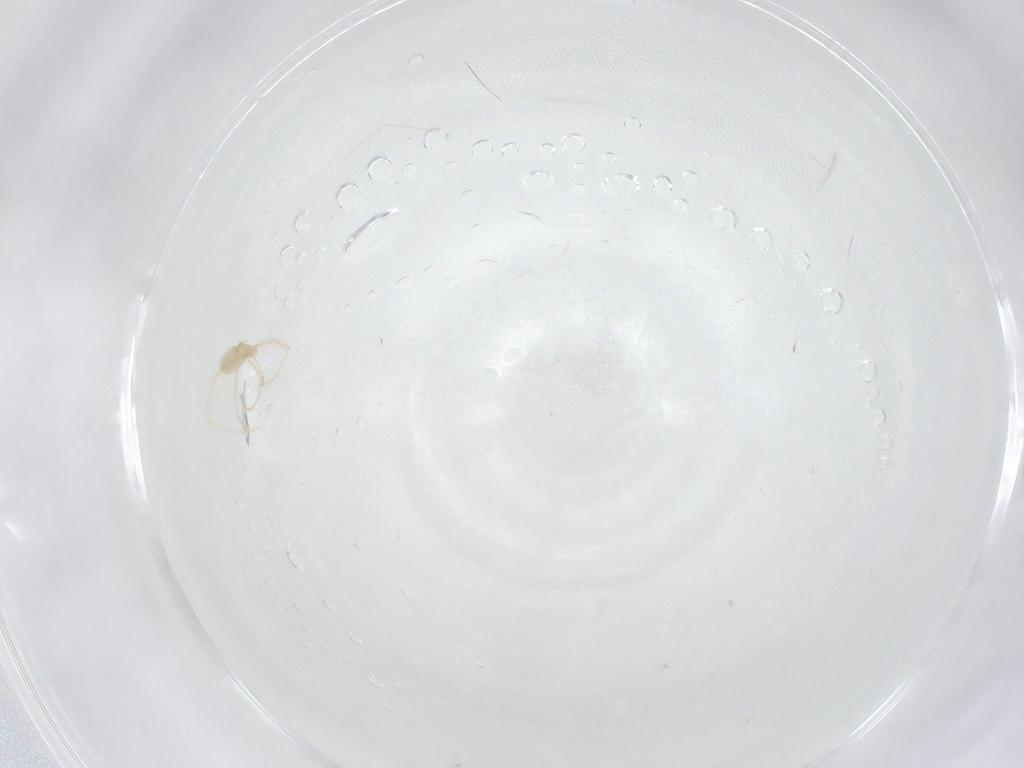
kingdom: Animalia
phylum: Arthropoda
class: Arachnida
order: Trombidiformes
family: Erythraeidae
